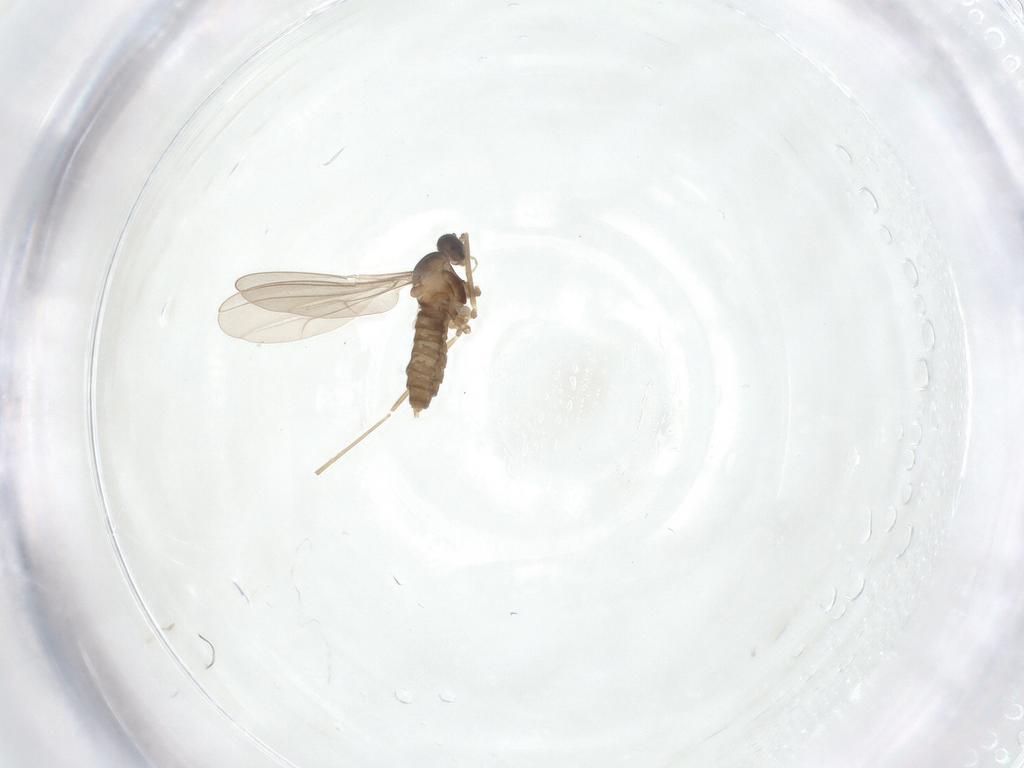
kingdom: Animalia
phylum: Arthropoda
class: Insecta
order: Diptera
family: Cecidomyiidae
